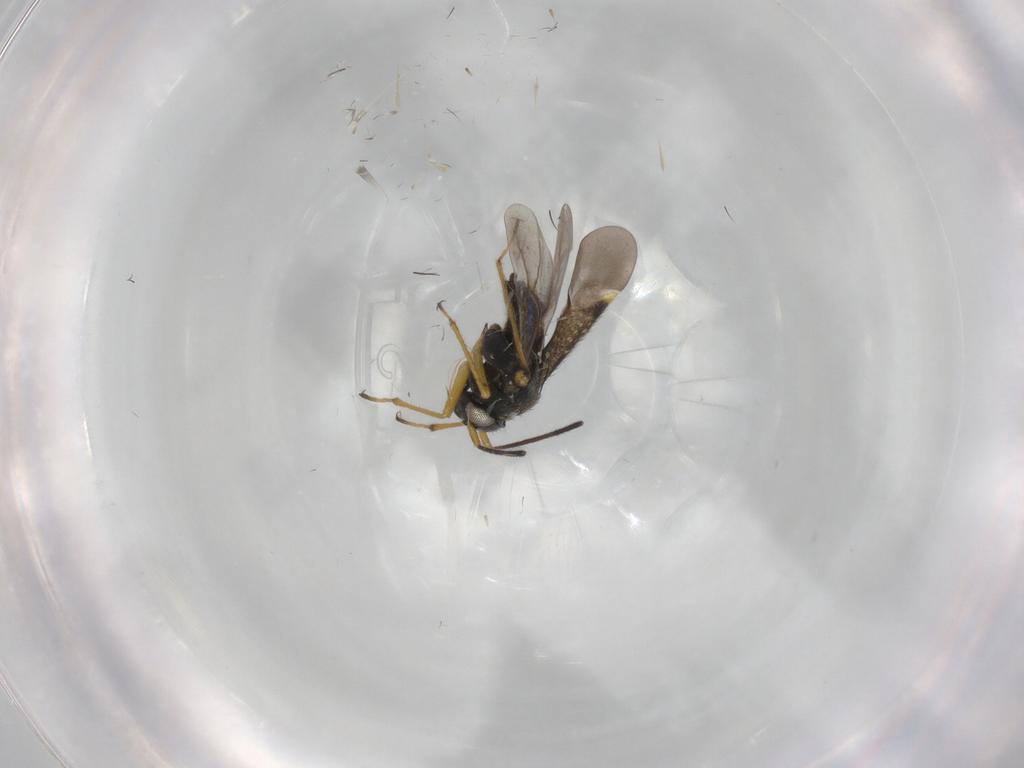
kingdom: Animalia
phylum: Arthropoda
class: Insecta
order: Hemiptera
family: Miridae
